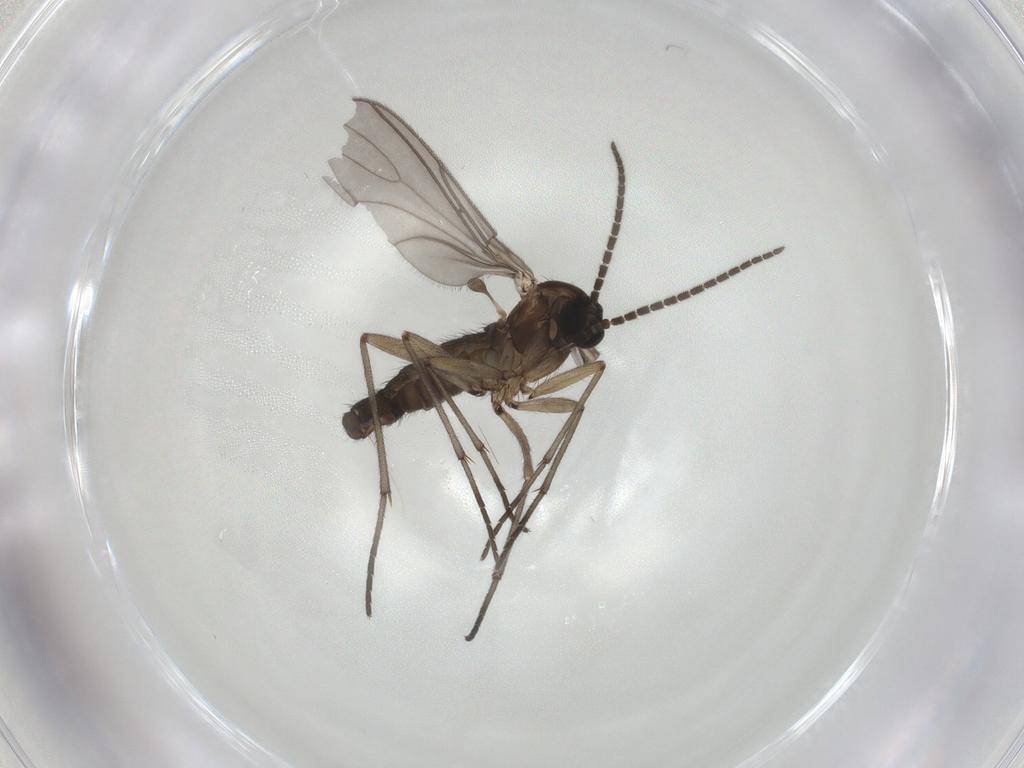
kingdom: Animalia
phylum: Arthropoda
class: Insecta
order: Diptera
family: Sciaridae
